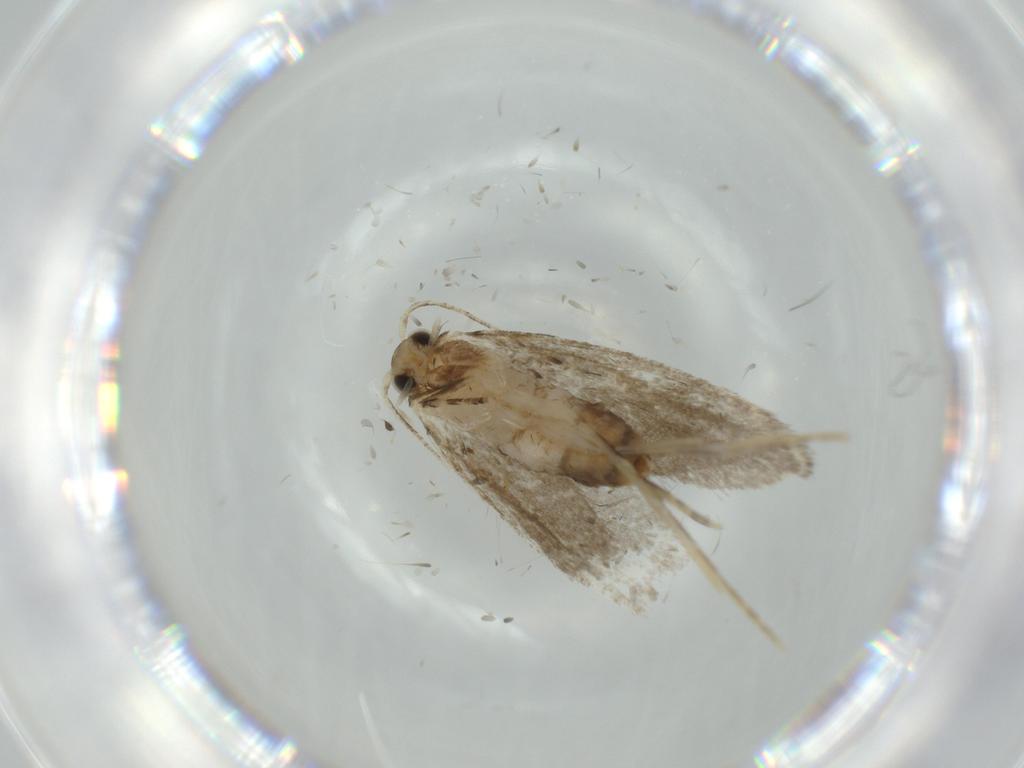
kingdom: Animalia
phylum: Arthropoda
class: Insecta
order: Lepidoptera
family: Tineidae
